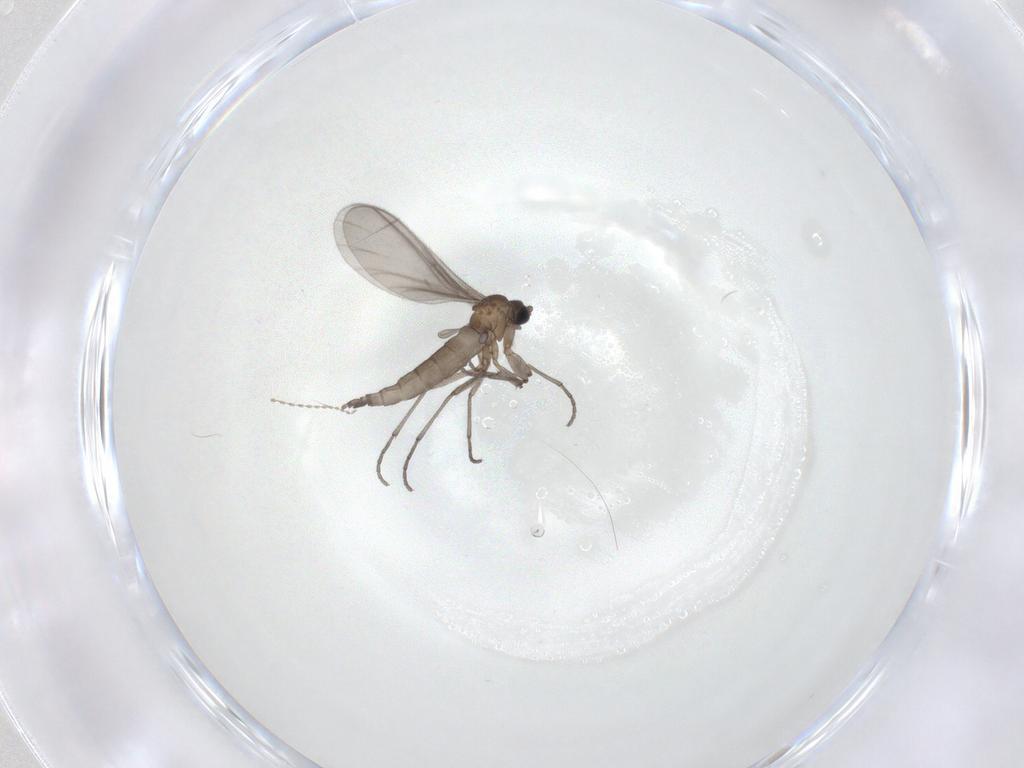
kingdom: Animalia
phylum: Arthropoda
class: Insecta
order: Diptera
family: Sciaridae
